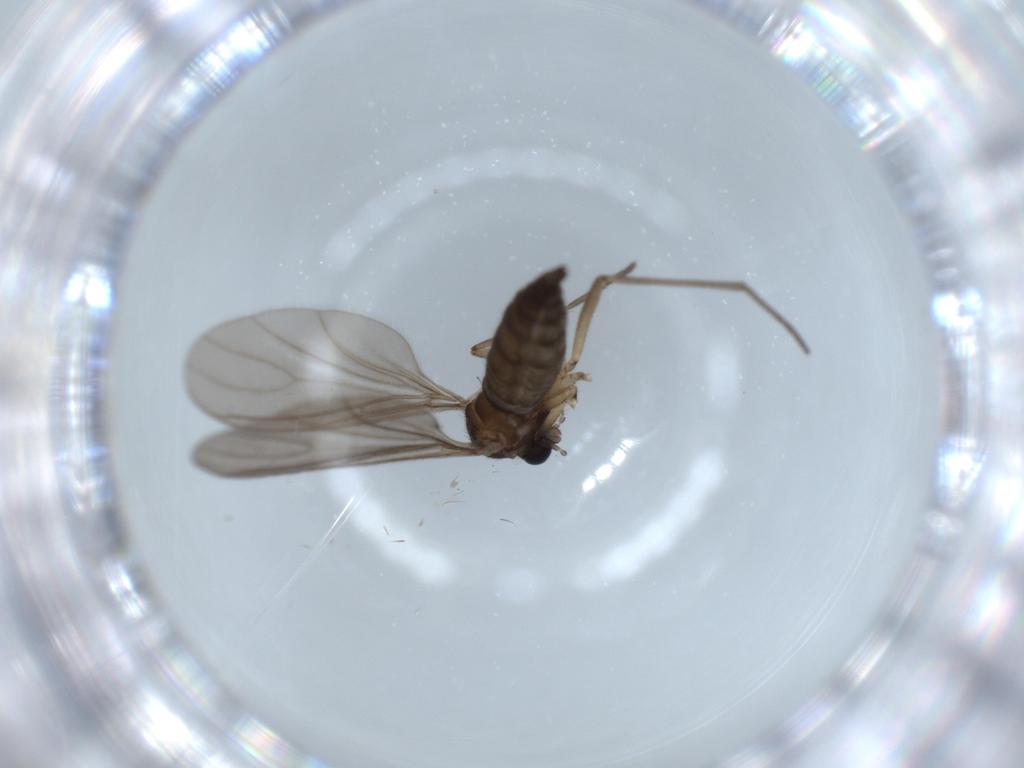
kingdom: Animalia
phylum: Arthropoda
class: Insecta
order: Diptera
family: Sciaridae
